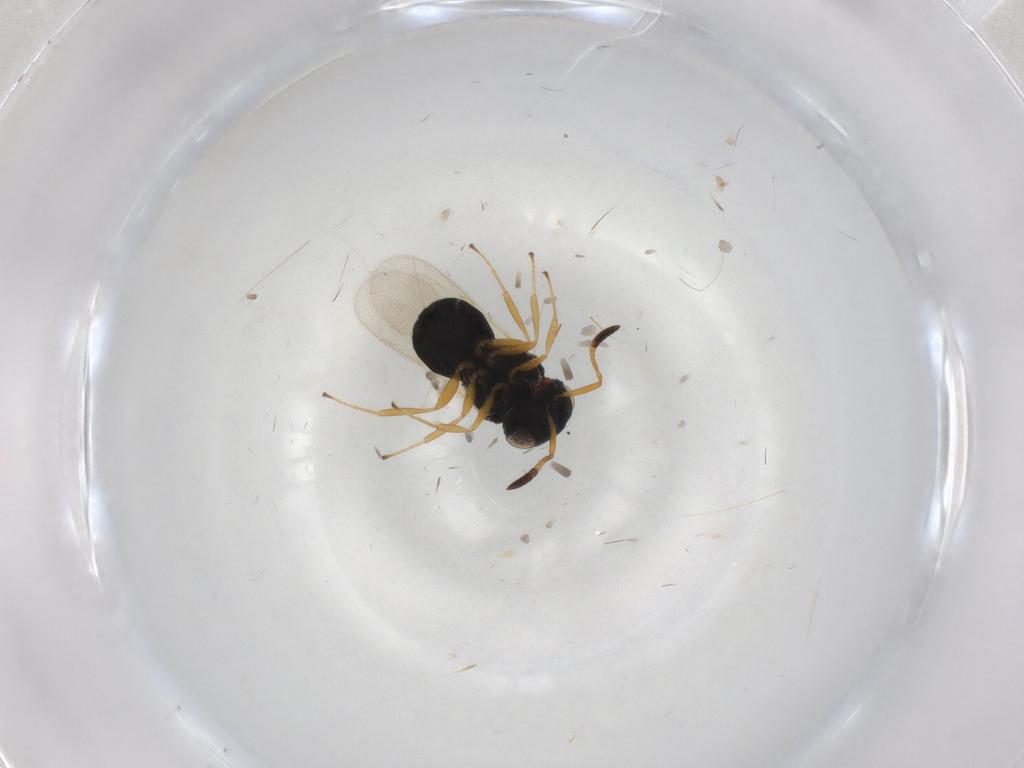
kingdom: Animalia
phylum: Arthropoda
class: Insecta
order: Hymenoptera
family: Scelionidae
